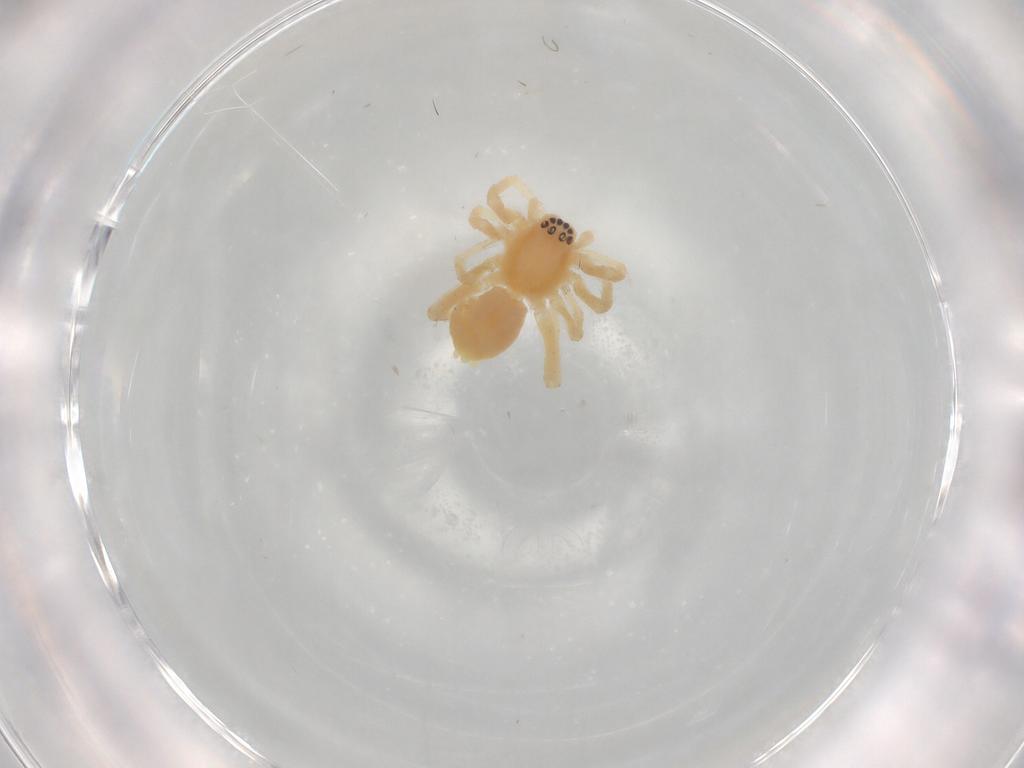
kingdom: Animalia
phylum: Arthropoda
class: Arachnida
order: Araneae
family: Anyphaenidae
